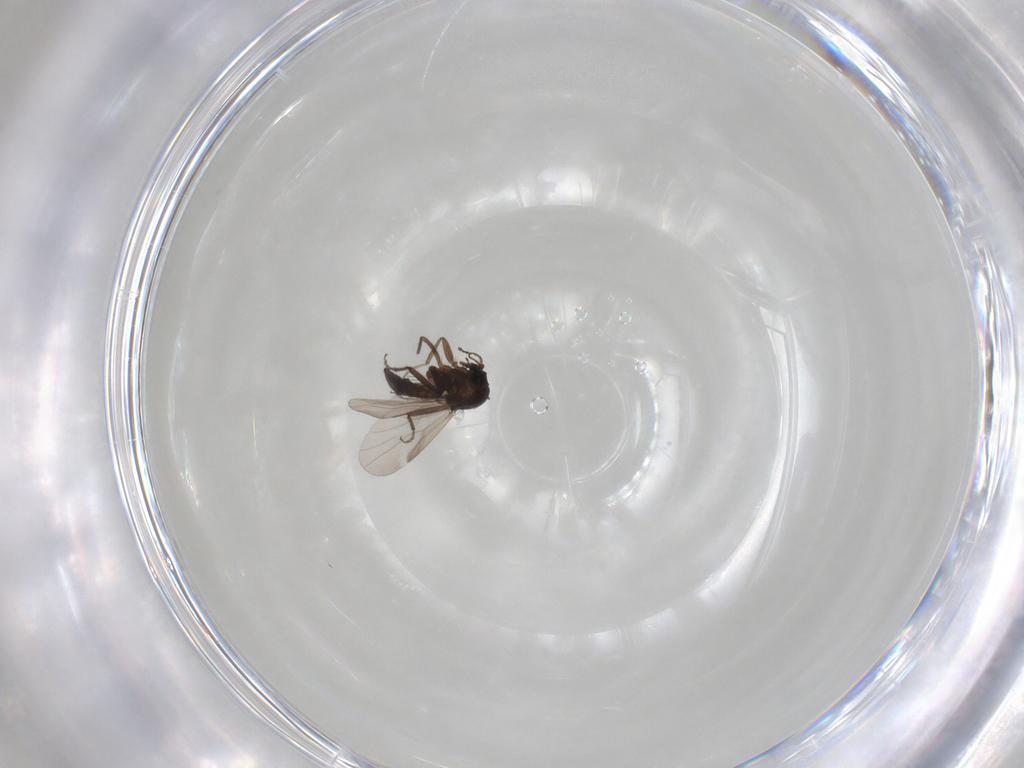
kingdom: Animalia
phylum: Arthropoda
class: Insecta
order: Diptera
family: Ceratopogonidae
